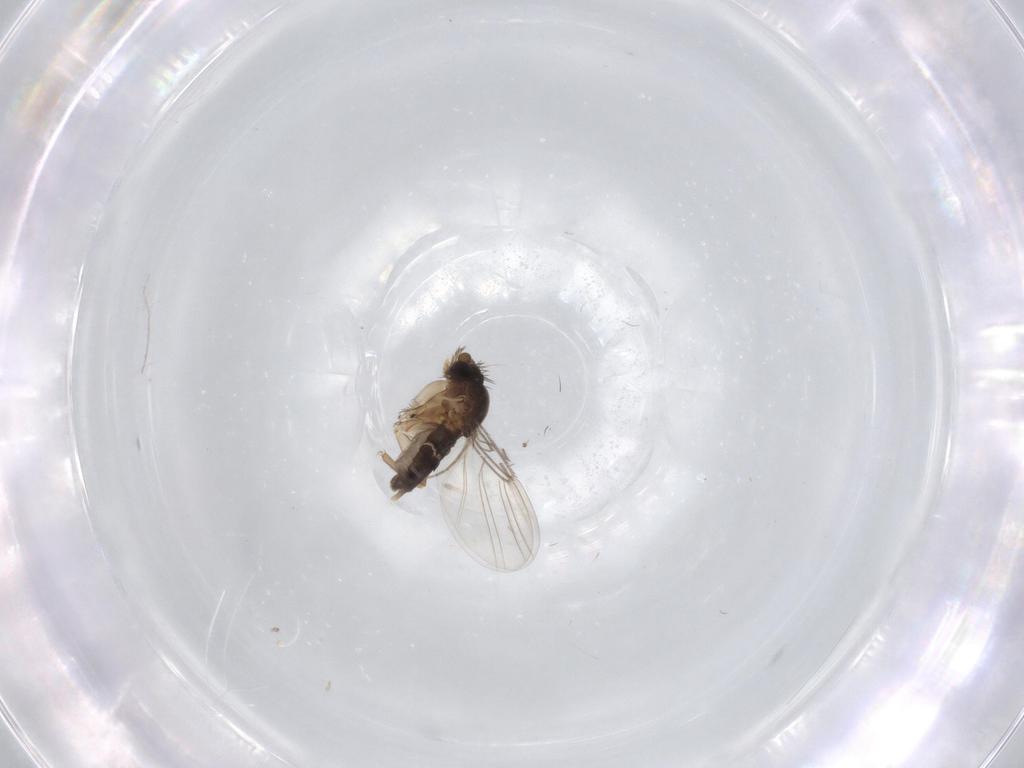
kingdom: Animalia
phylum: Arthropoda
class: Insecta
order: Diptera
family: Phoridae
